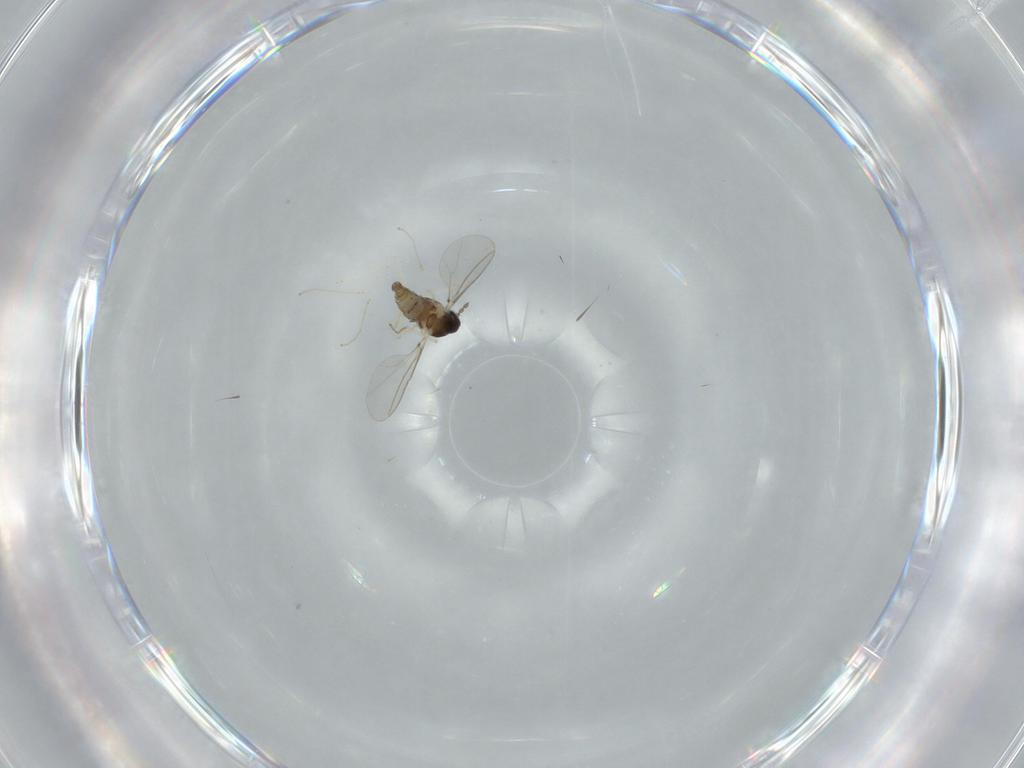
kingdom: Animalia
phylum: Arthropoda
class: Insecta
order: Diptera
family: Cecidomyiidae
